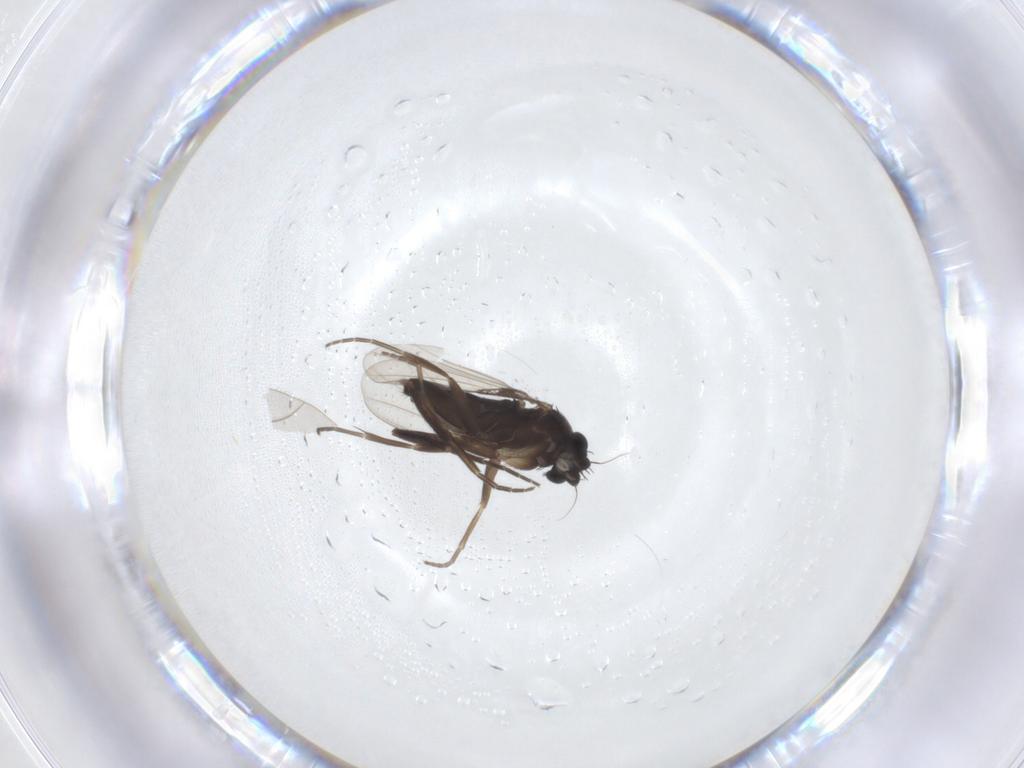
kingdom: Animalia
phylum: Arthropoda
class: Insecta
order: Diptera
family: Phoridae
